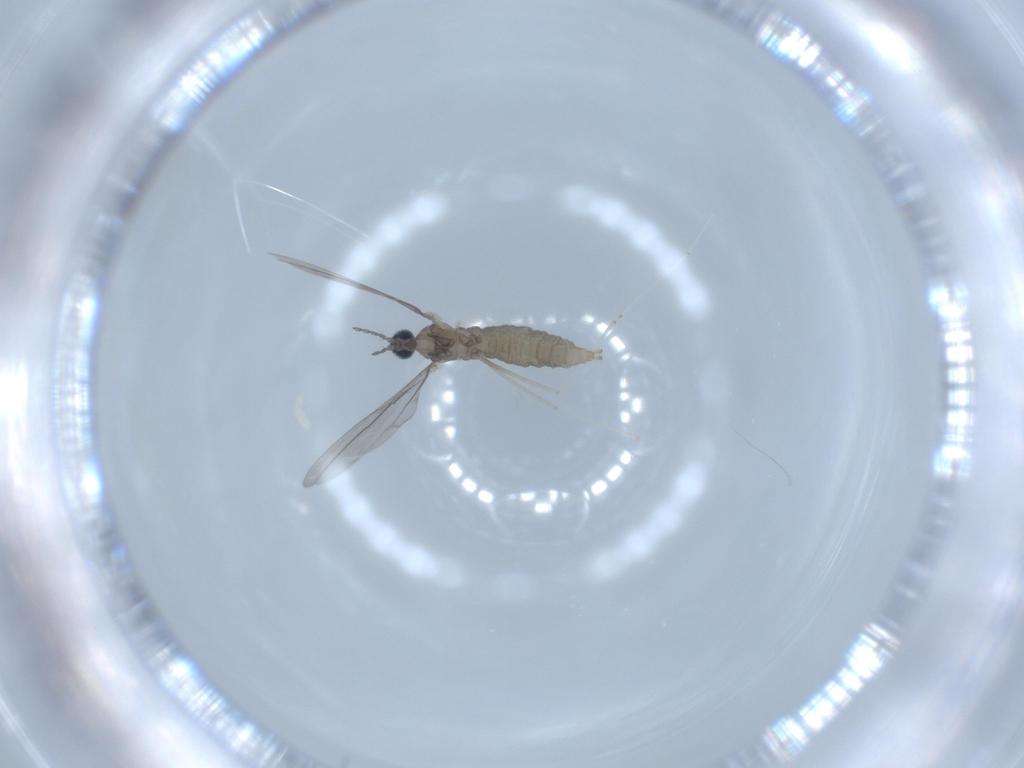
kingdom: Animalia
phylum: Arthropoda
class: Insecta
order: Diptera
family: Cecidomyiidae
